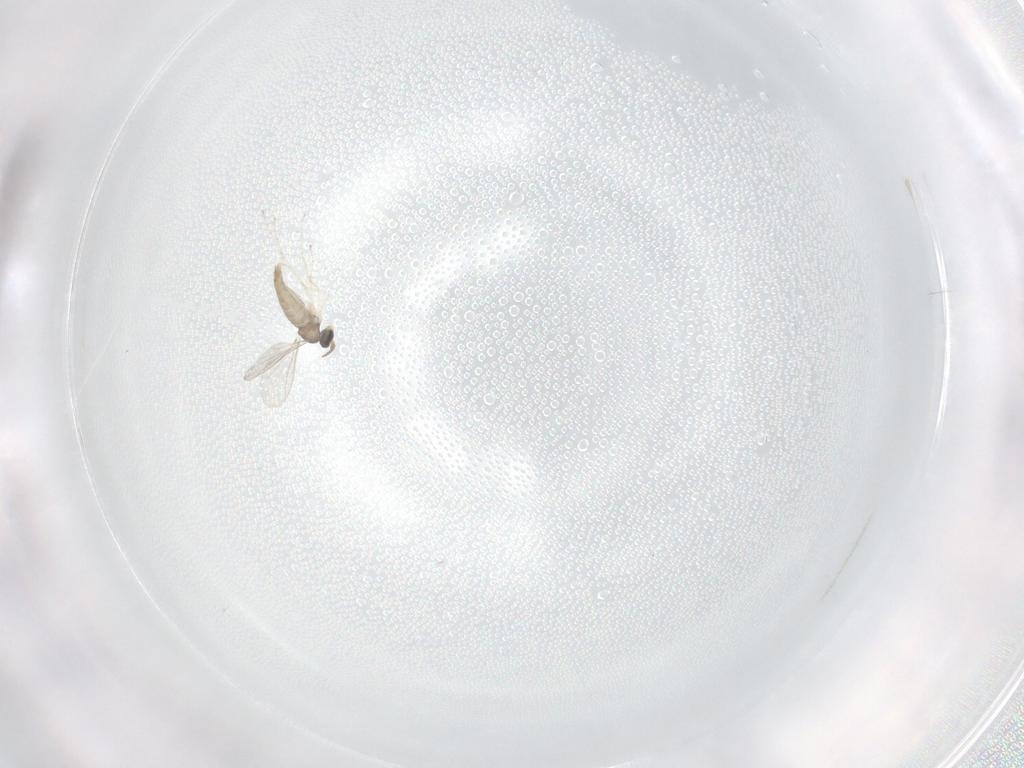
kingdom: Animalia
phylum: Arthropoda
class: Insecta
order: Diptera
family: Cecidomyiidae
